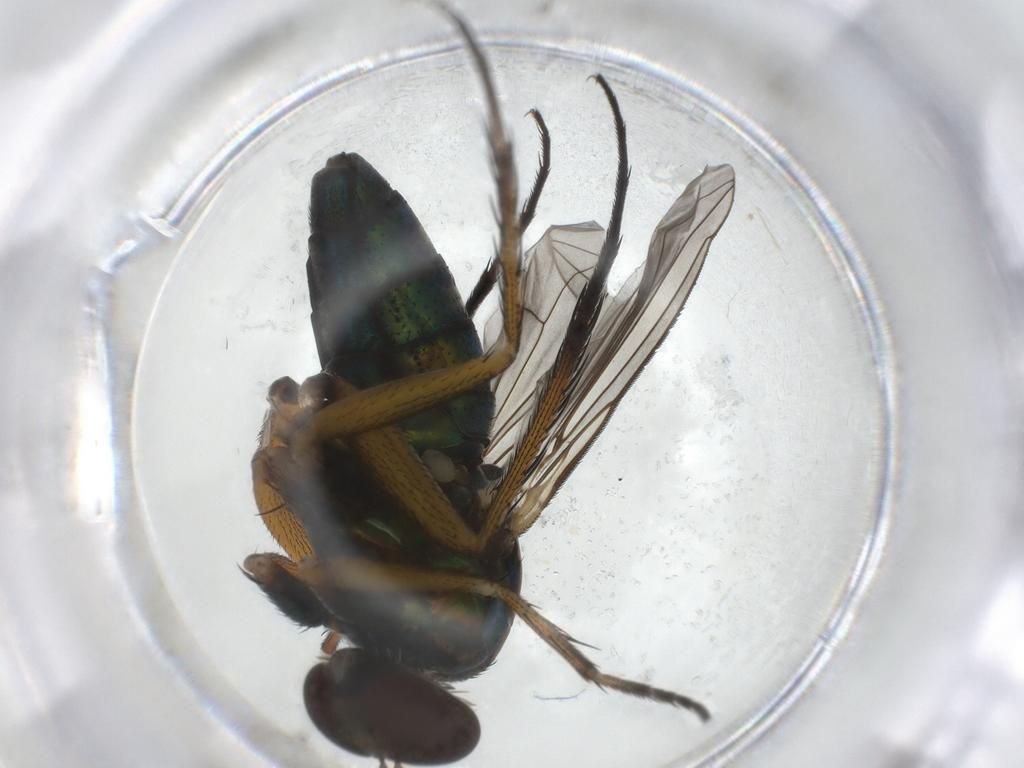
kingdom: Animalia
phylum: Arthropoda
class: Insecta
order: Diptera
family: Dolichopodidae
